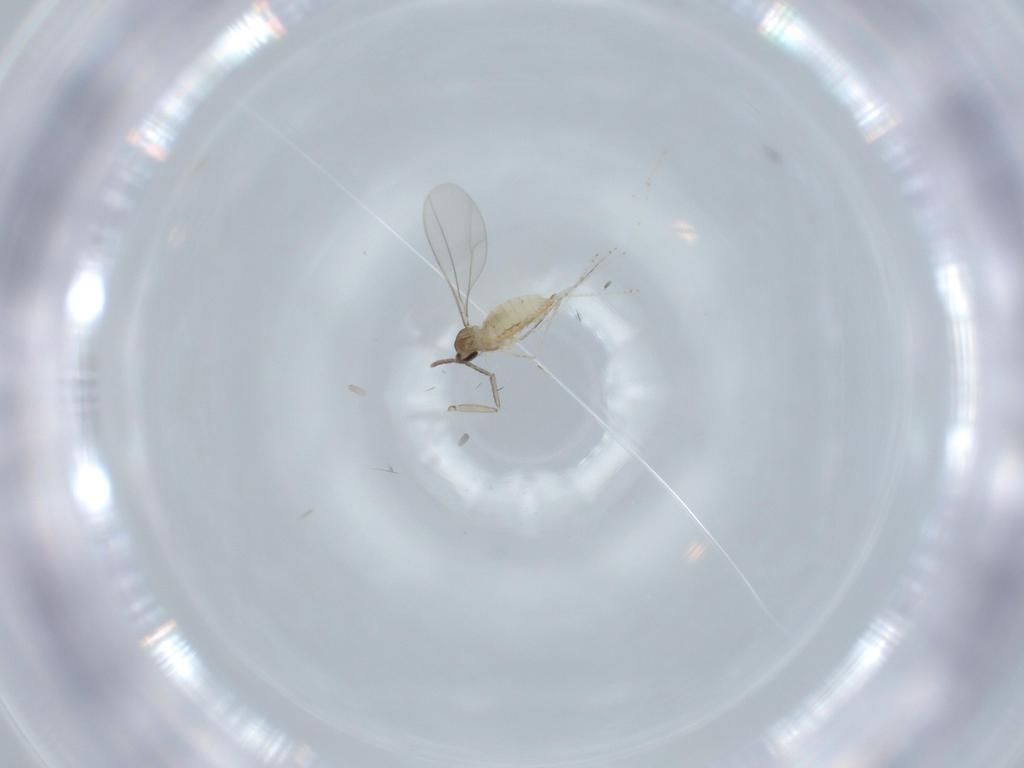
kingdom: Animalia
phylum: Arthropoda
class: Insecta
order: Diptera
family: Cecidomyiidae
